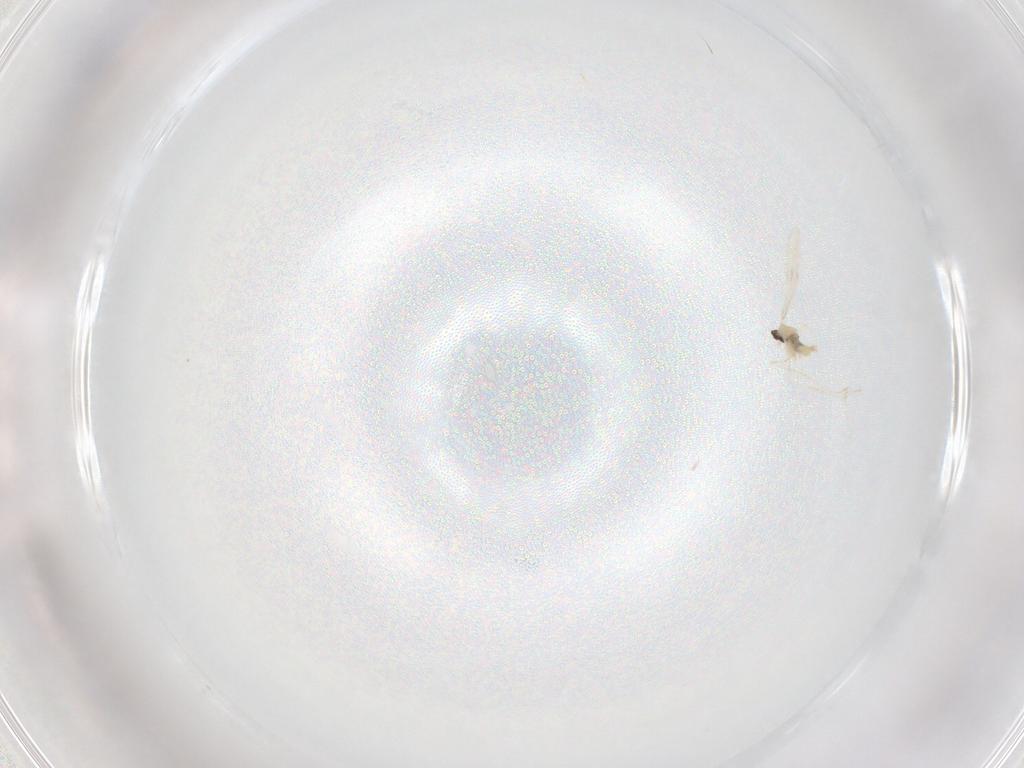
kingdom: Animalia
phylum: Arthropoda
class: Insecta
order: Diptera
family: Cecidomyiidae
